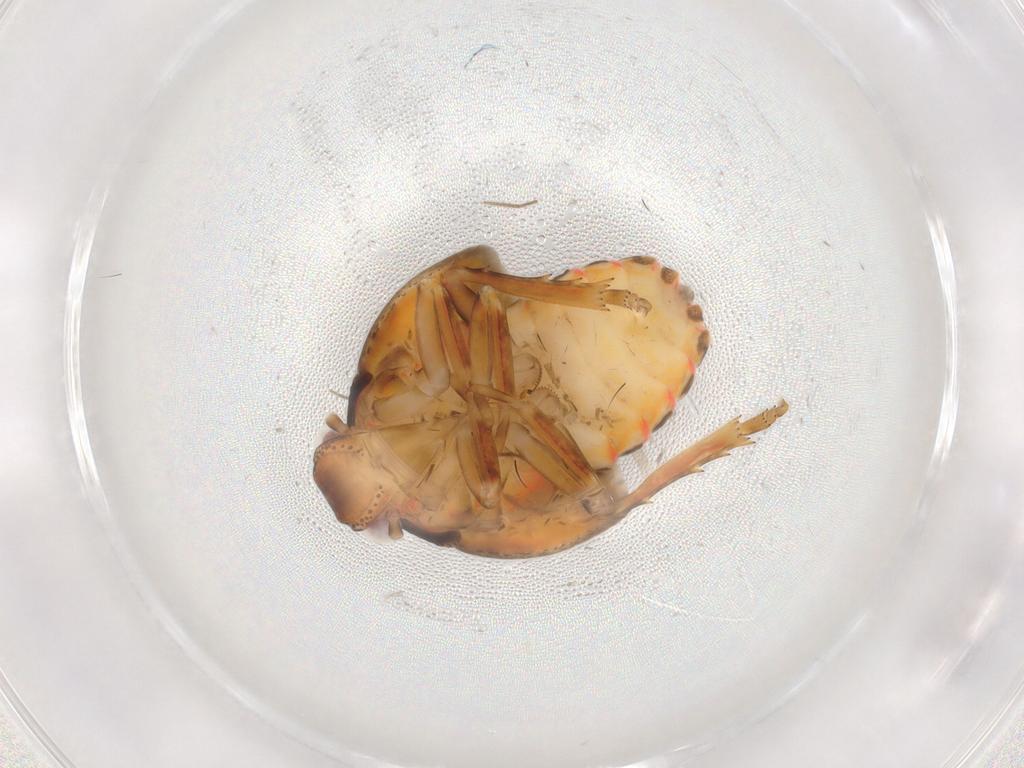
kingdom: Animalia
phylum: Arthropoda
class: Insecta
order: Hemiptera
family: Flatidae
